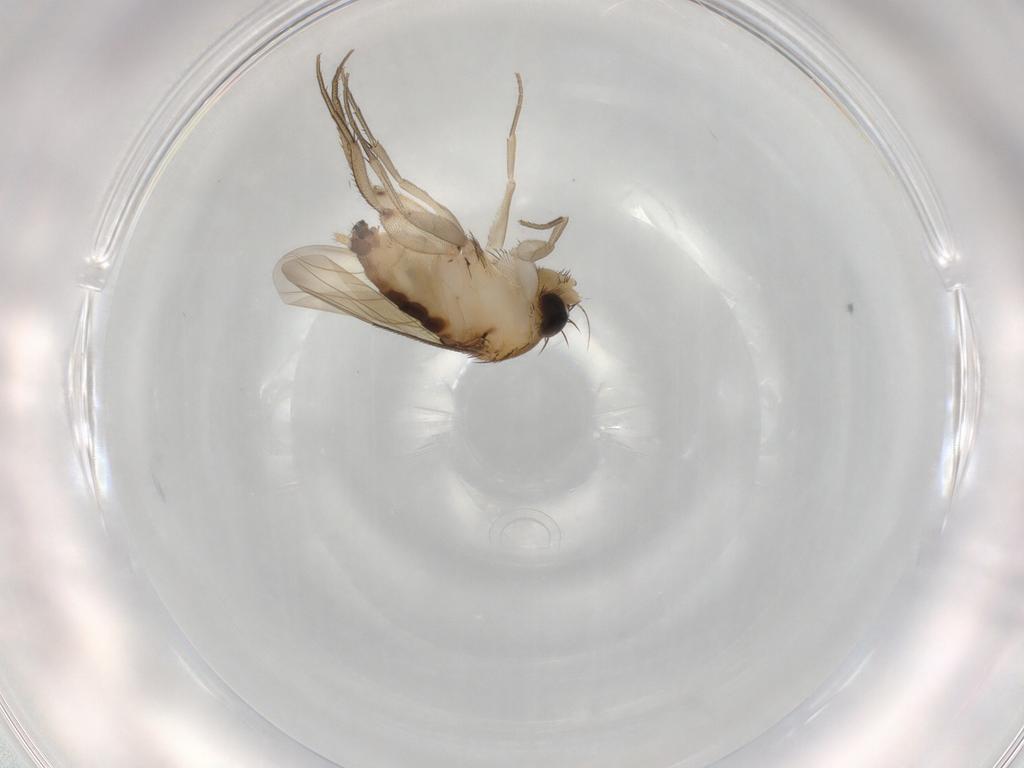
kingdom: Animalia
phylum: Arthropoda
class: Insecta
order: Diptera
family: Phoridae
